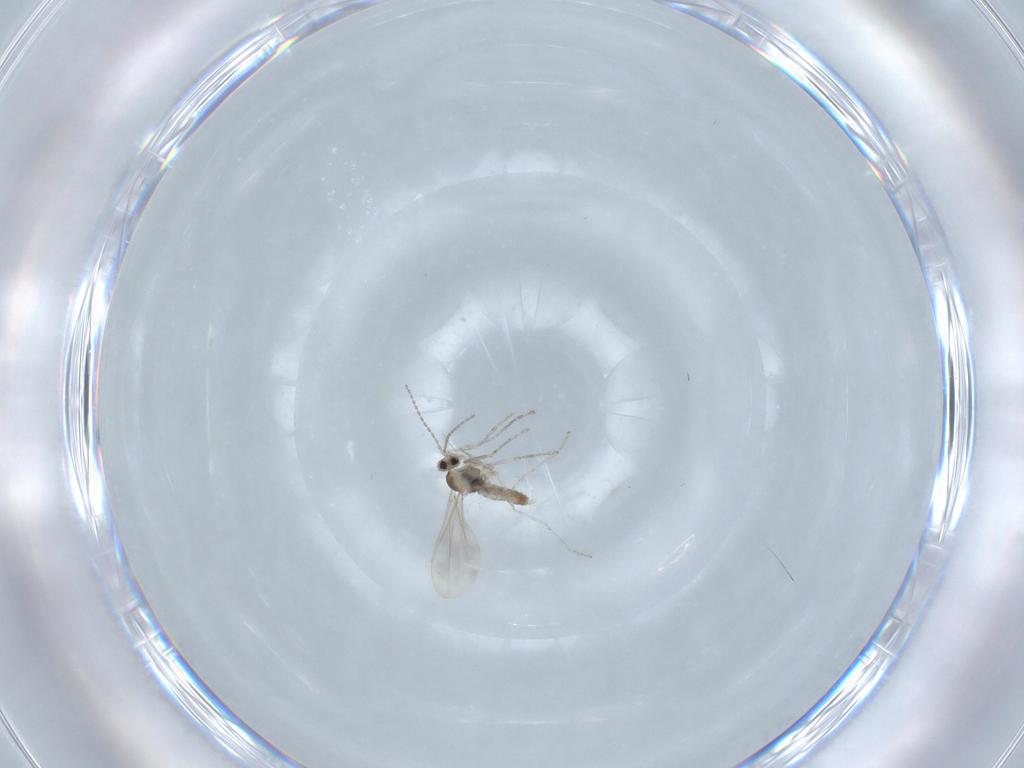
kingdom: Animalia
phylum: Arthropoda
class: Insecta
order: Diptera
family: Cecidomyiidae
